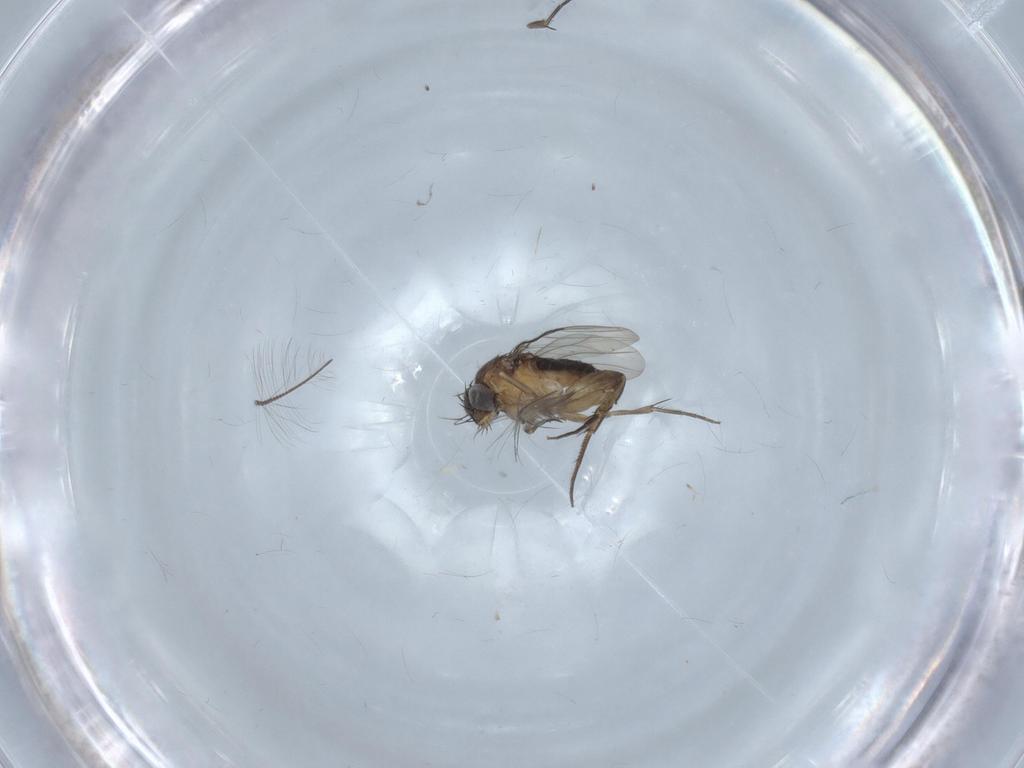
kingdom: Animalia
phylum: Arthropoda
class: Insecta
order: Diptera
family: Phoridae
